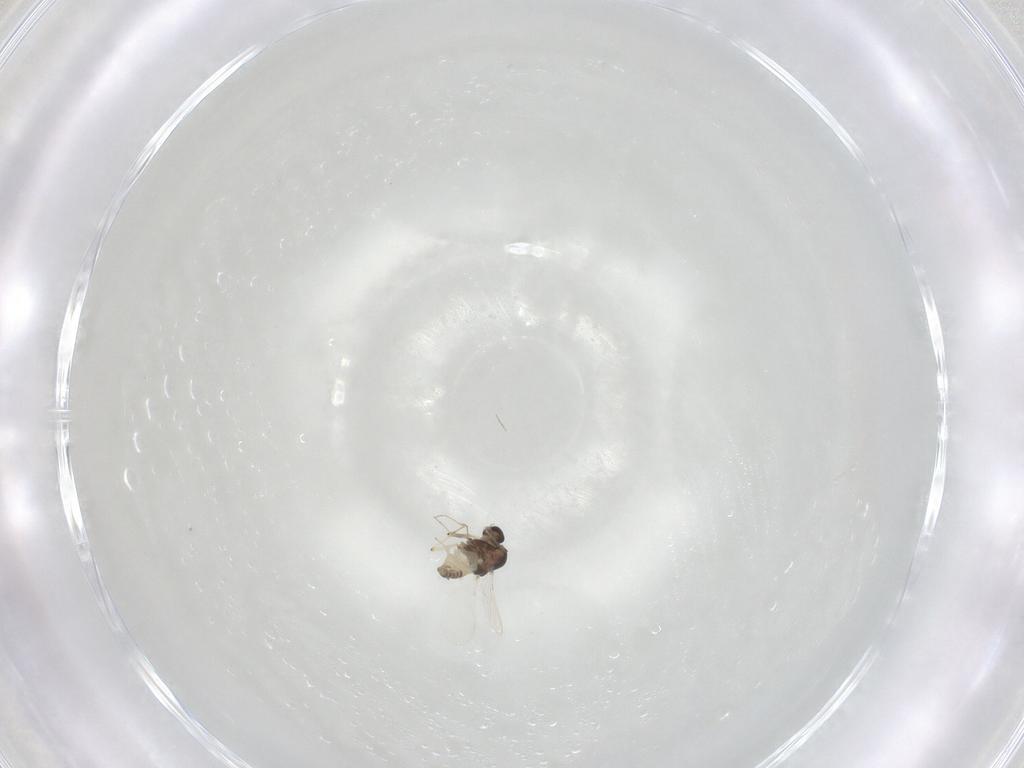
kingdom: Animalia
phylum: Arthropoda
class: Insecta
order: Diptera
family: Chironomidae
